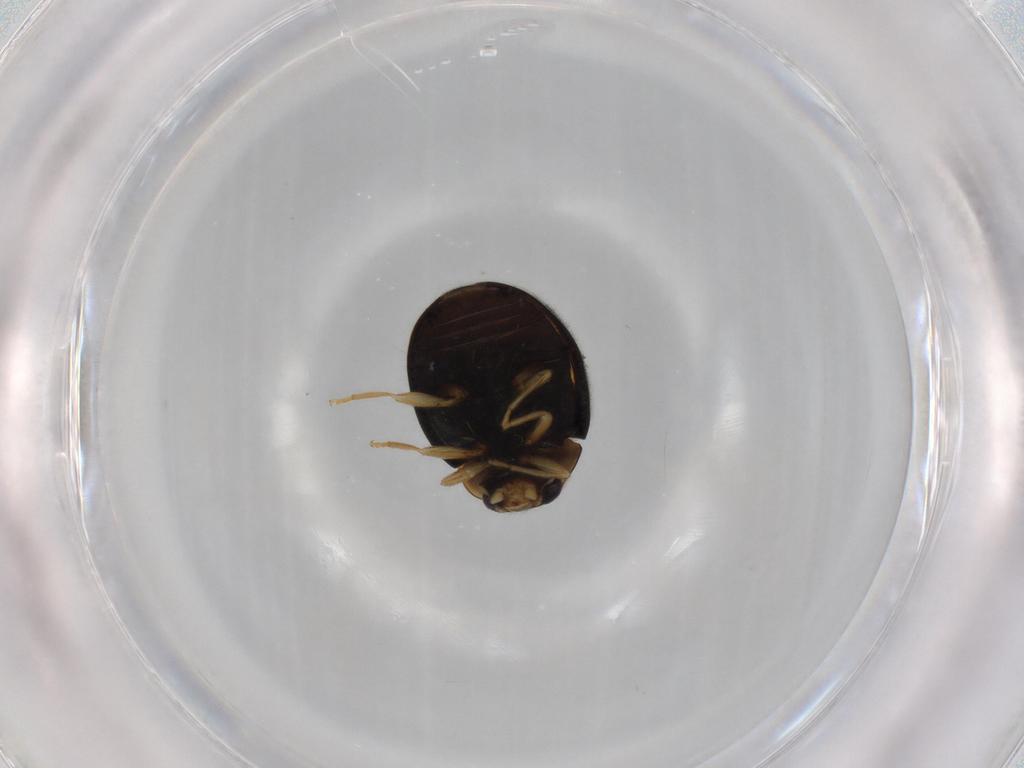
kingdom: Animalia
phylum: Arthropoda
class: Insecta
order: Coleoptera
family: Coccinellidae
